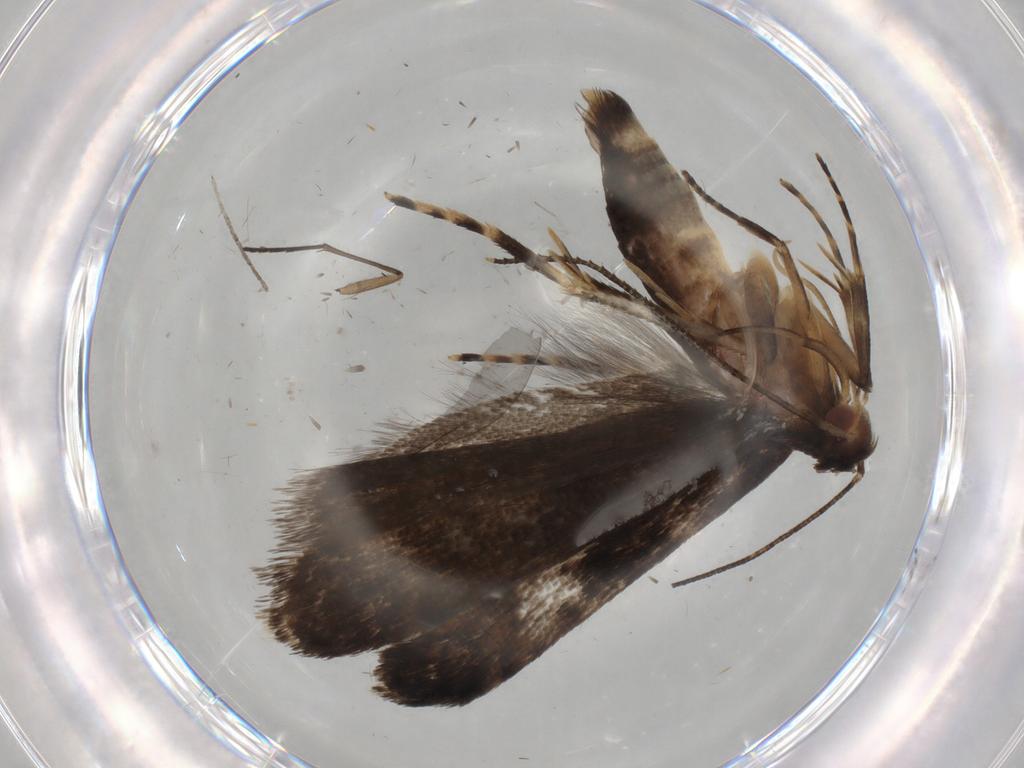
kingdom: Animalia
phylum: Arthropoda
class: Insecta
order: Lepidoptera
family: Gelechiidae
